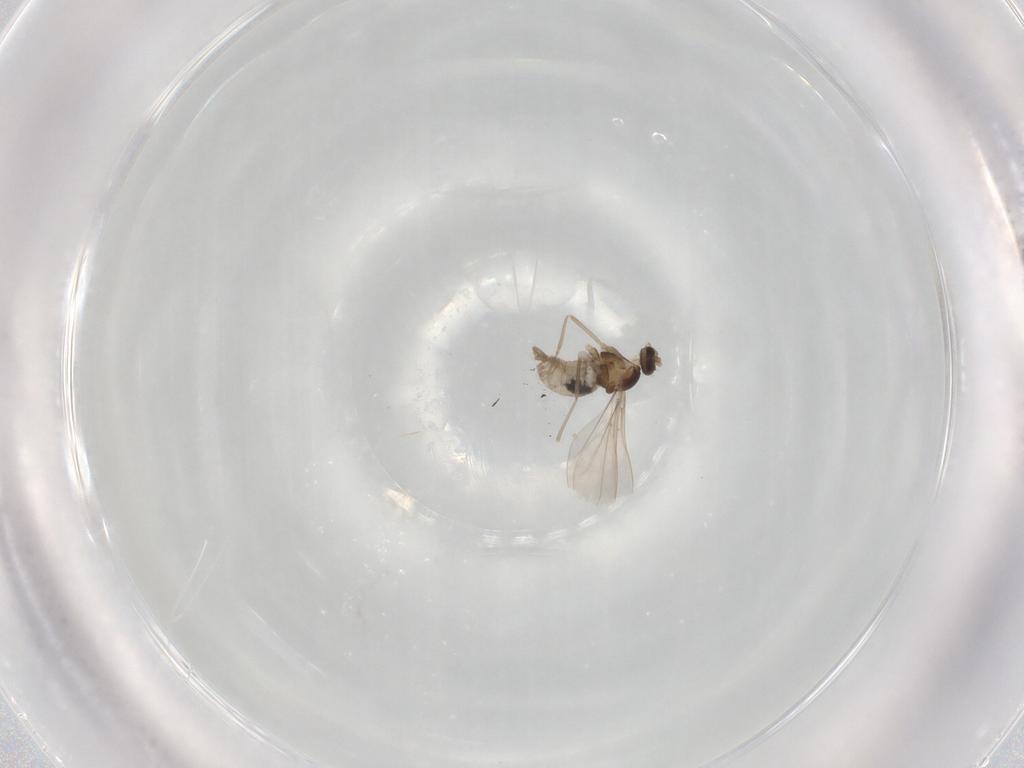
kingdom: Animalia
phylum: Arthropoda
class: Insecta
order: Diptera
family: Cecidomyiidae
